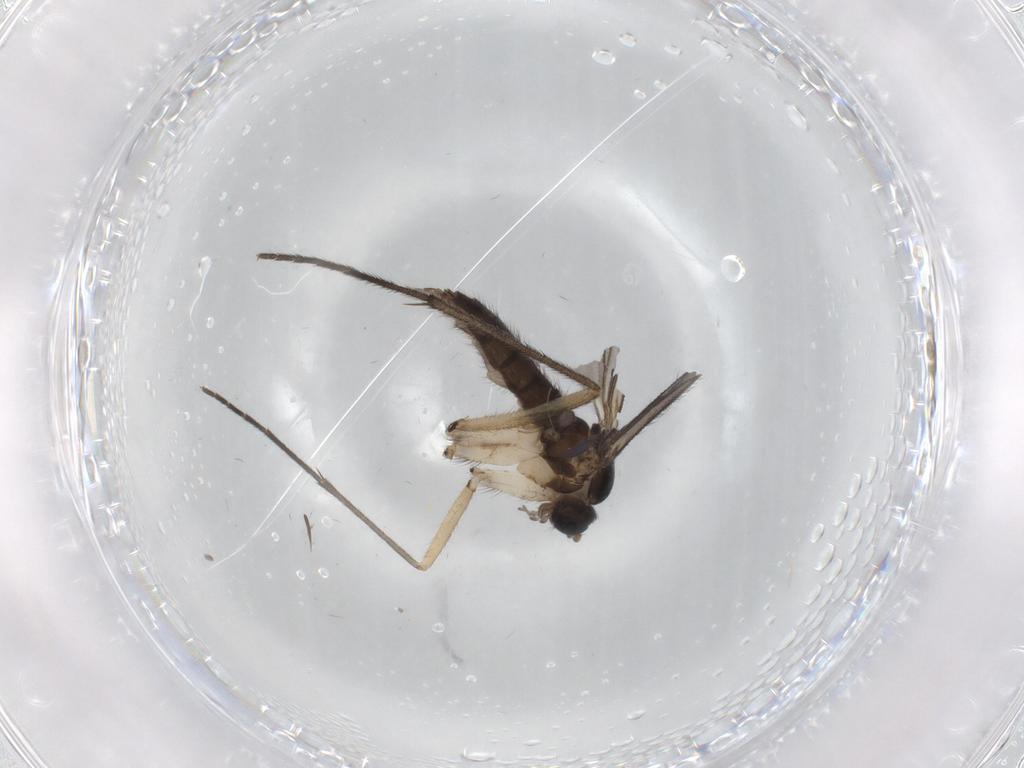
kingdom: Animalia
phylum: Arthropoda
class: Insecta
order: Diptera
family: Sciaridae
